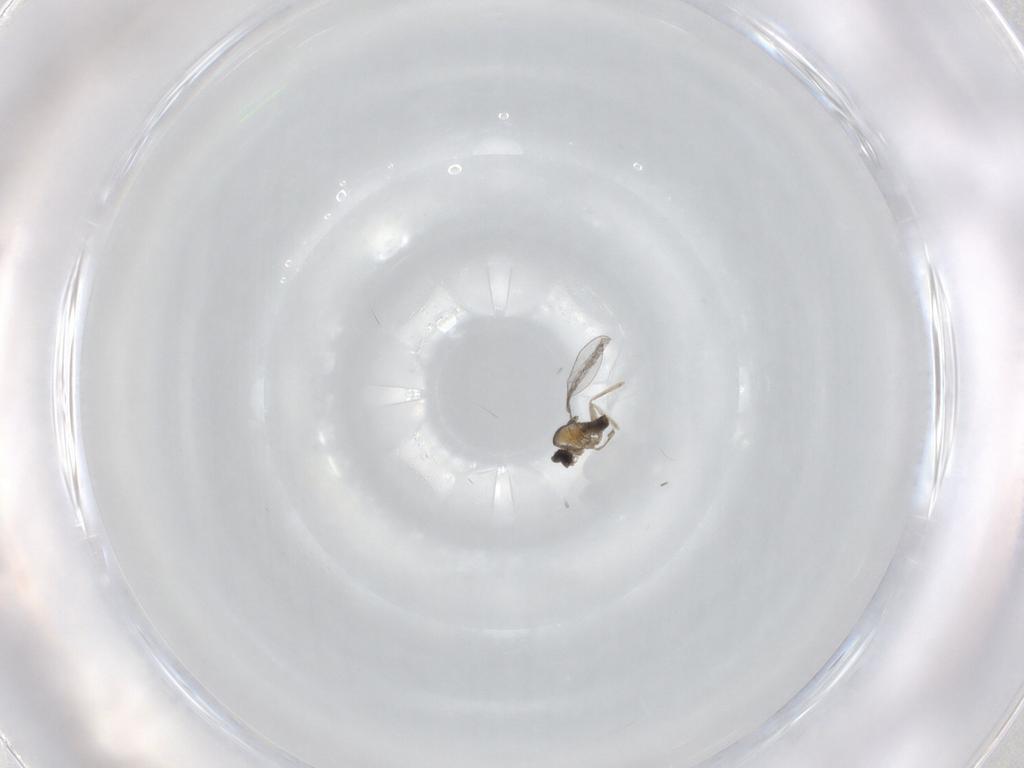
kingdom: Animalia
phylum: Arthropoda
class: Insecta
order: Diptera
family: Cecidomyiidae
